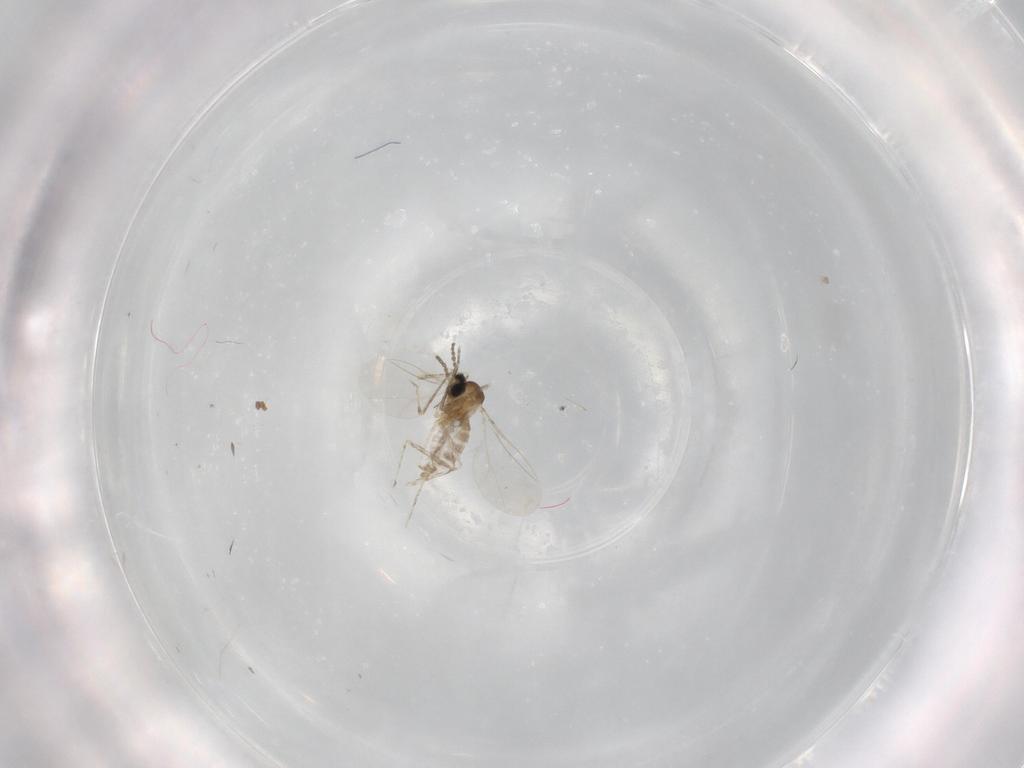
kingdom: Animalia
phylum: Arthropoda
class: Insecta
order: Diptera
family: Cecidomyiidae
